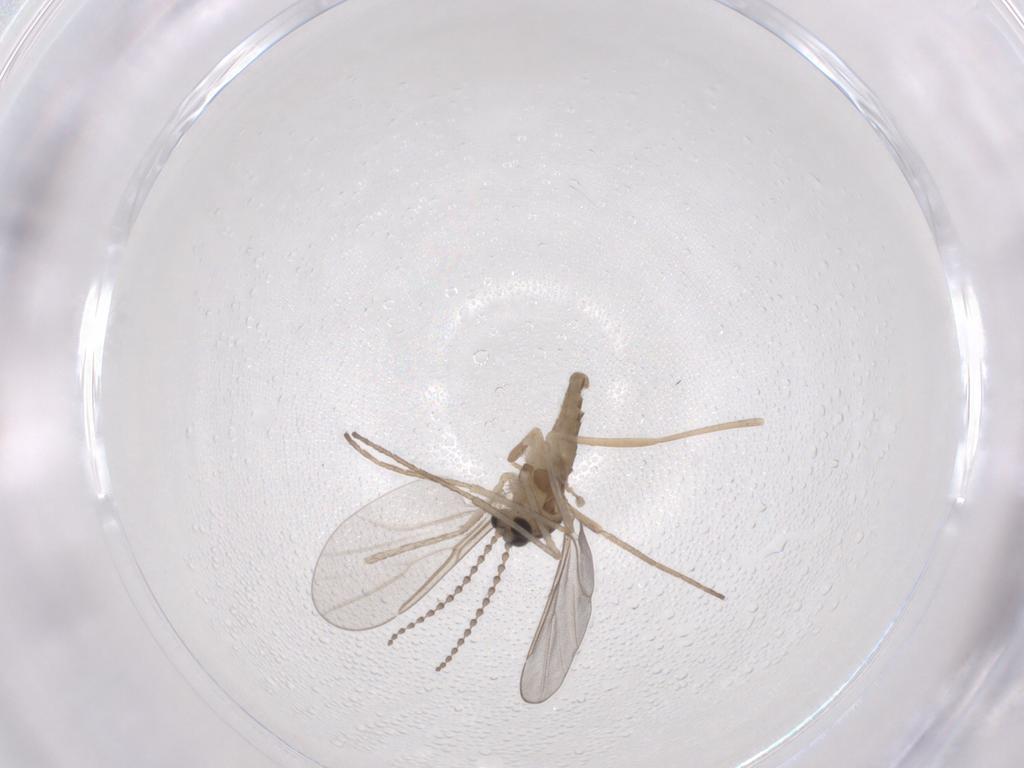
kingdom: Animalia
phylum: Arthropoda
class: Insecta
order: Diptera
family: Cecidomyiidae
